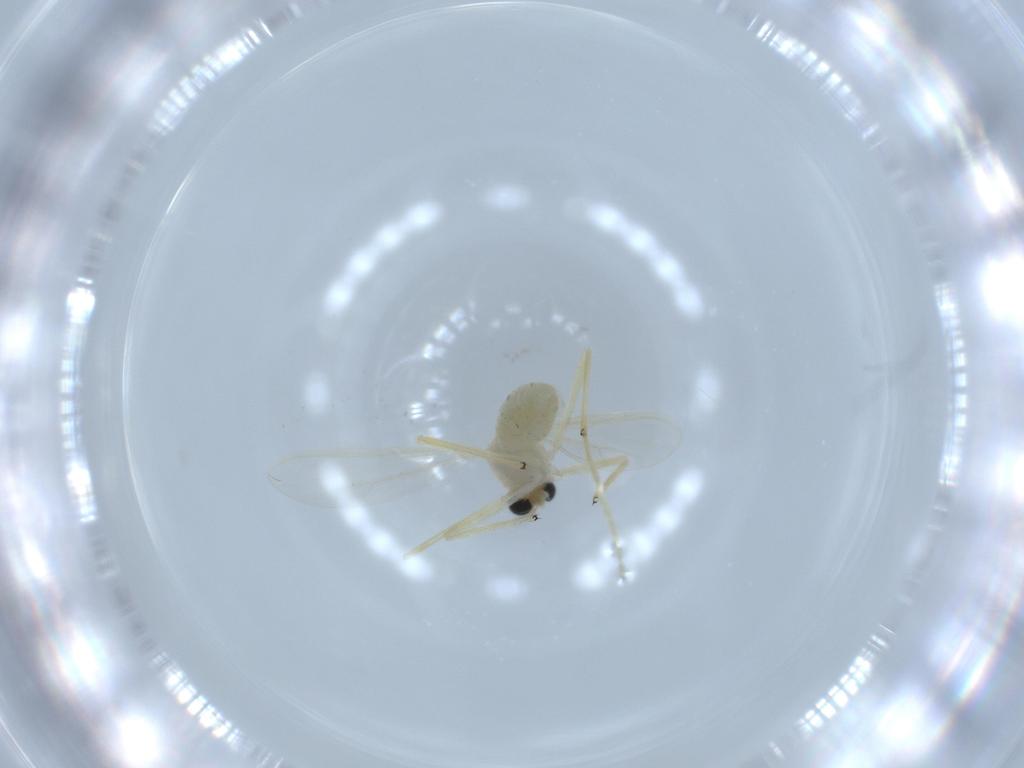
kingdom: Animalia
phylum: Arthropoda
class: Insecta
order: Diptera
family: Chironomidae
